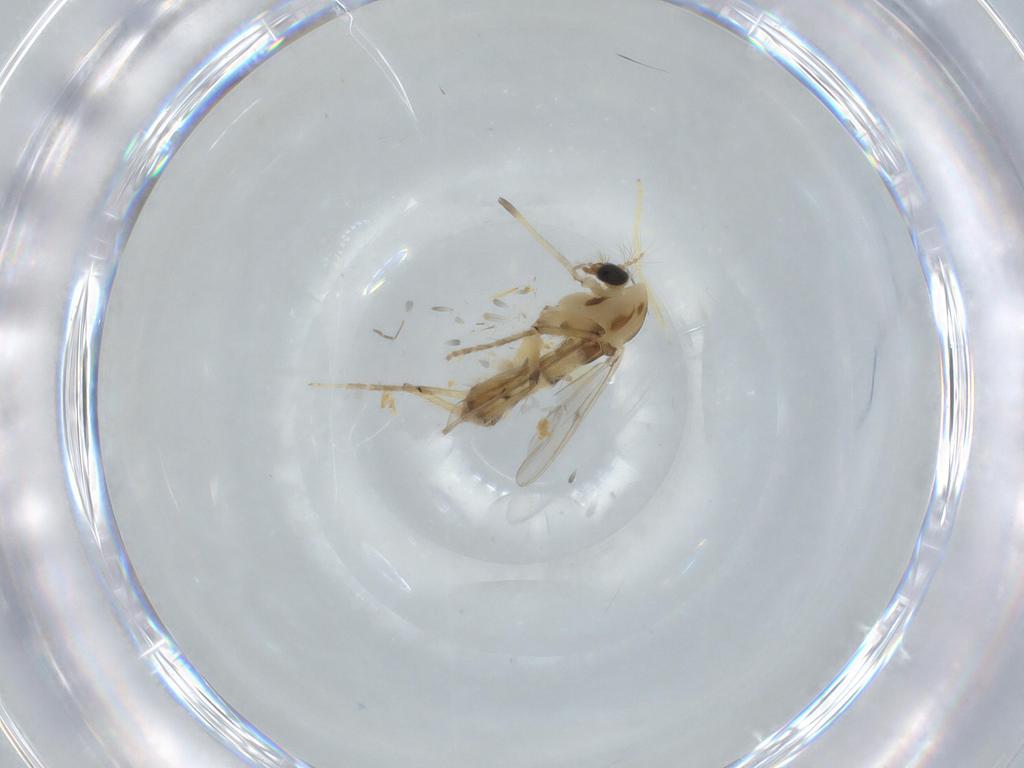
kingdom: Animalia
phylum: Arthropoda
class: Insecta
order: Diptera
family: Chironomidae
